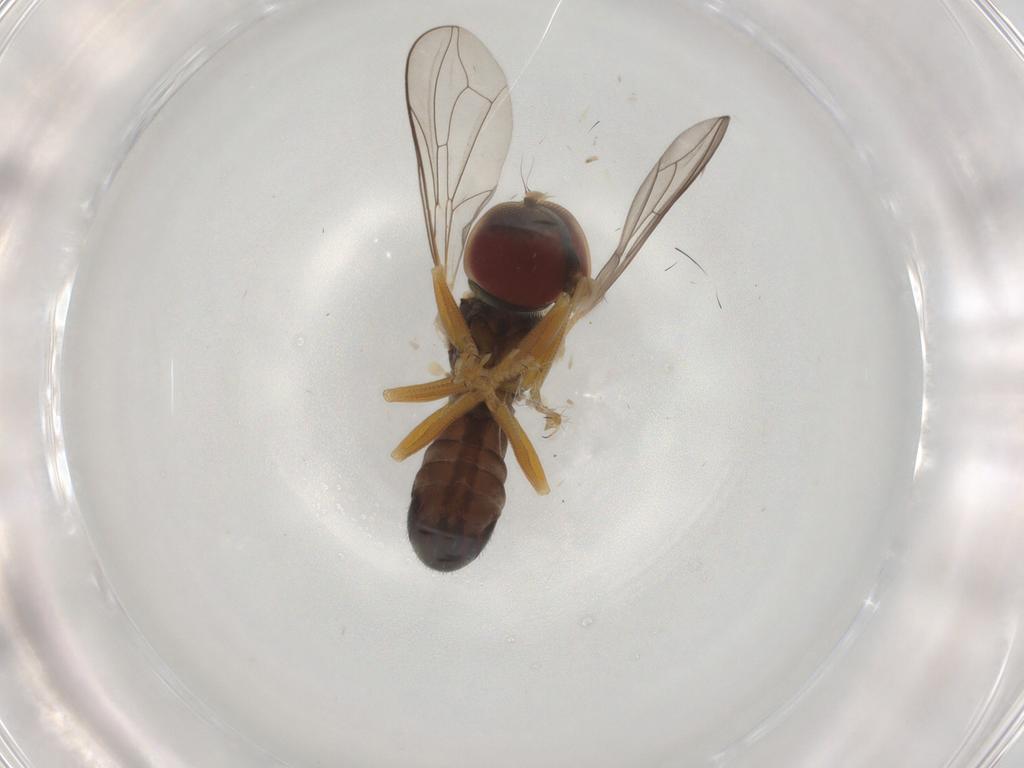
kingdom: Animalia
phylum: Arthropoda
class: Insecta
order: Diptera
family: Pipunculidae
